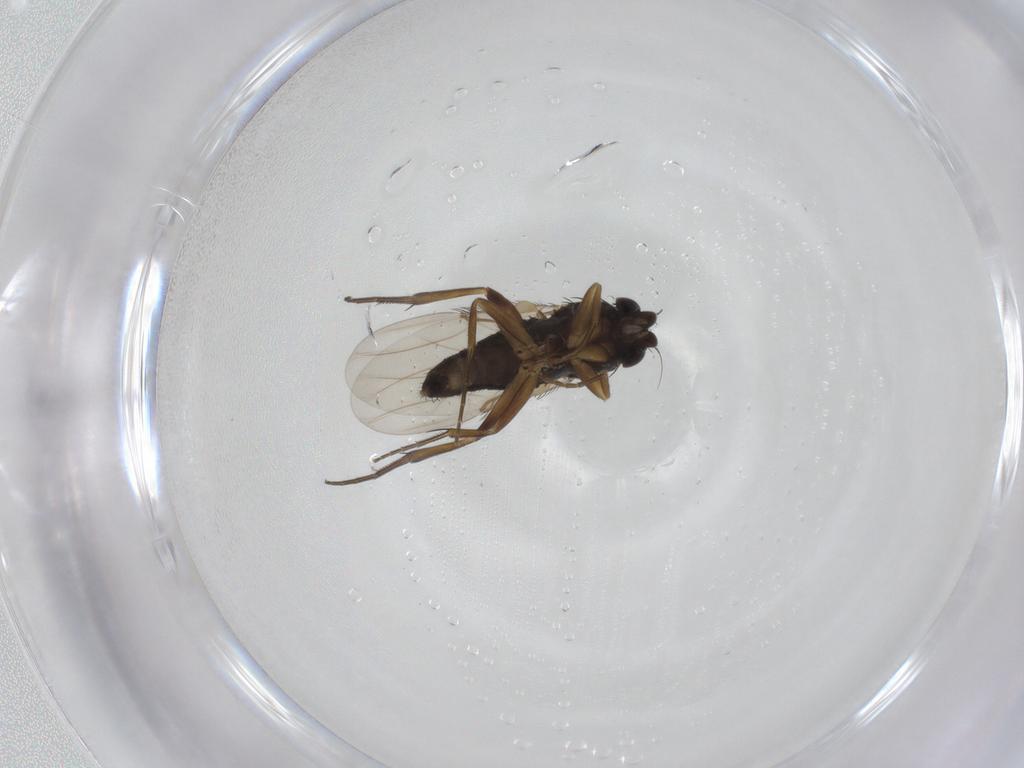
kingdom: Animalia
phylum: Arthropoda
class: Insecta
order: Diptera
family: Phoridae
